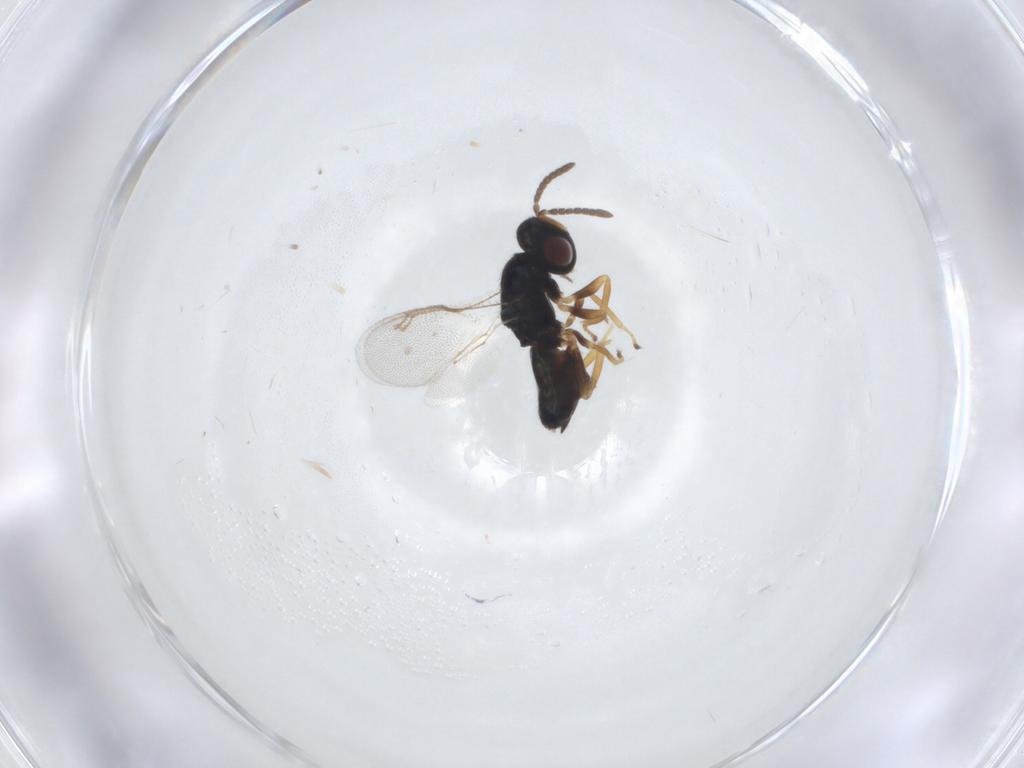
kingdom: Animalia
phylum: Arthropoda
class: Insecta
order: Hymenoptera
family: Pteromalidae
